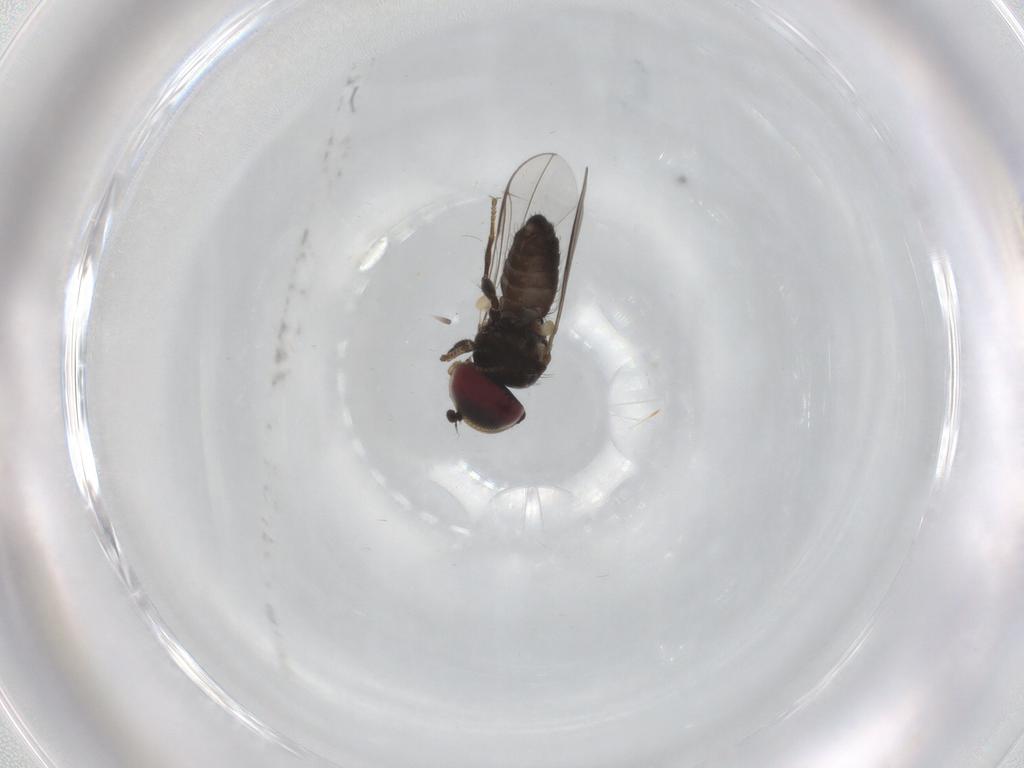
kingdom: Animalia
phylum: Arthropoda
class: Insecta
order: Diptera
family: Pipunculidae
